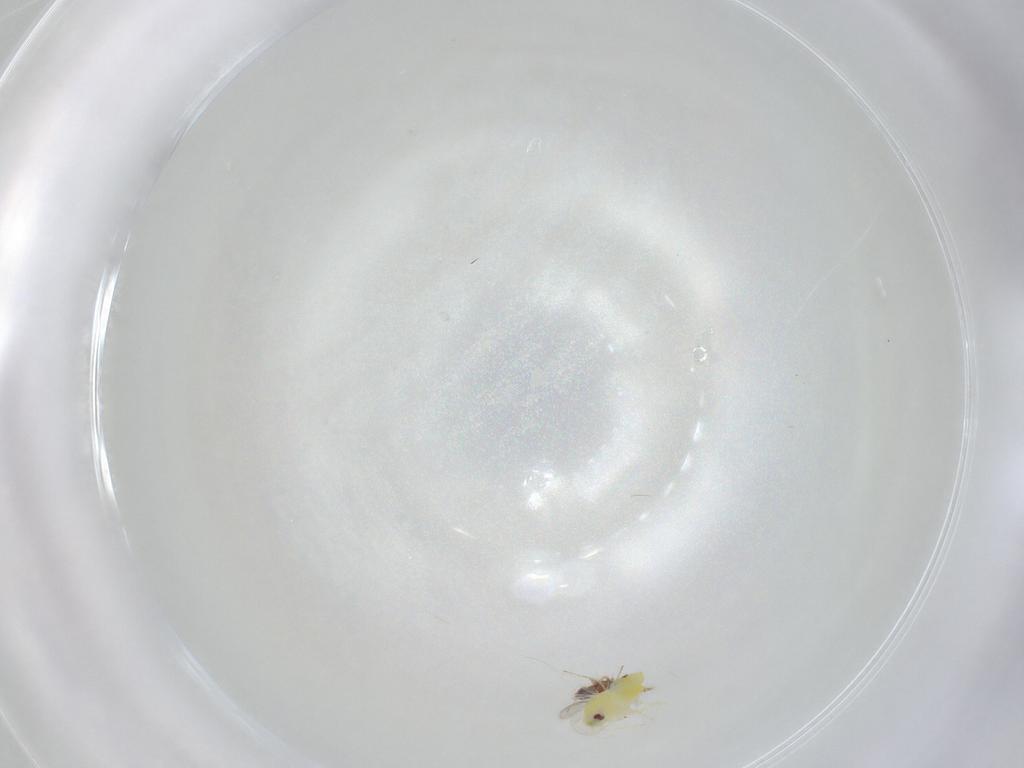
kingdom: Animalia
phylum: Arthropoda
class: Insecta
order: Hemiptera
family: Aleyrodidae
